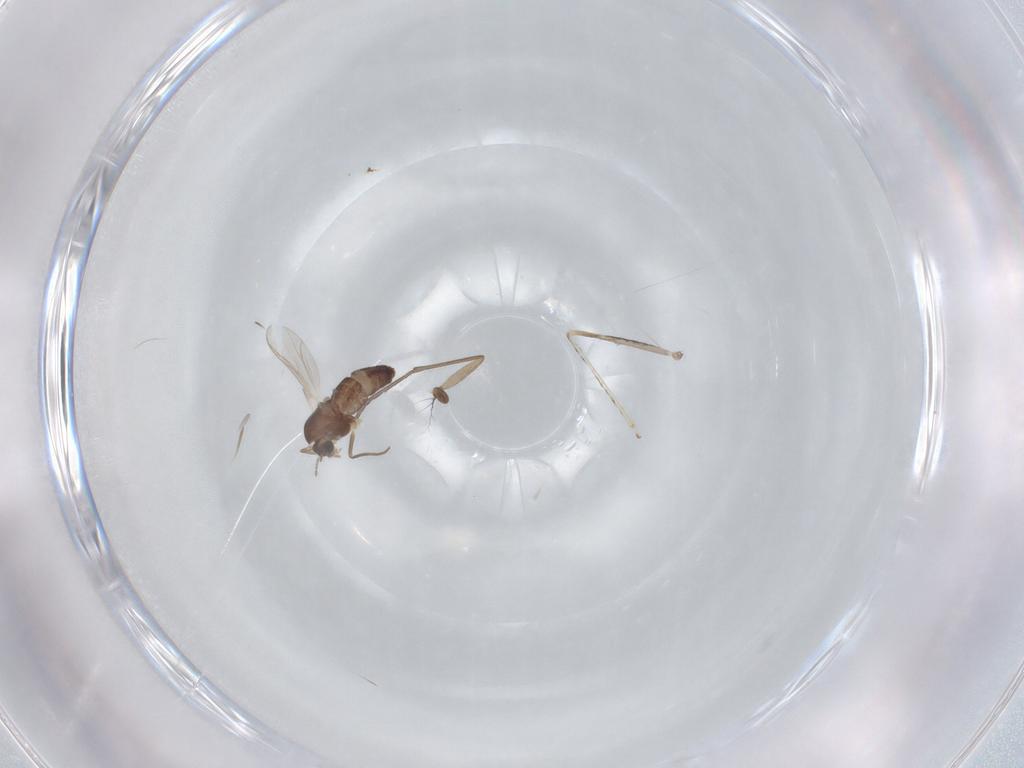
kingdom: Animalia
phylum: Arthropoda
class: Insecta
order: Diptera
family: Chironomidae
